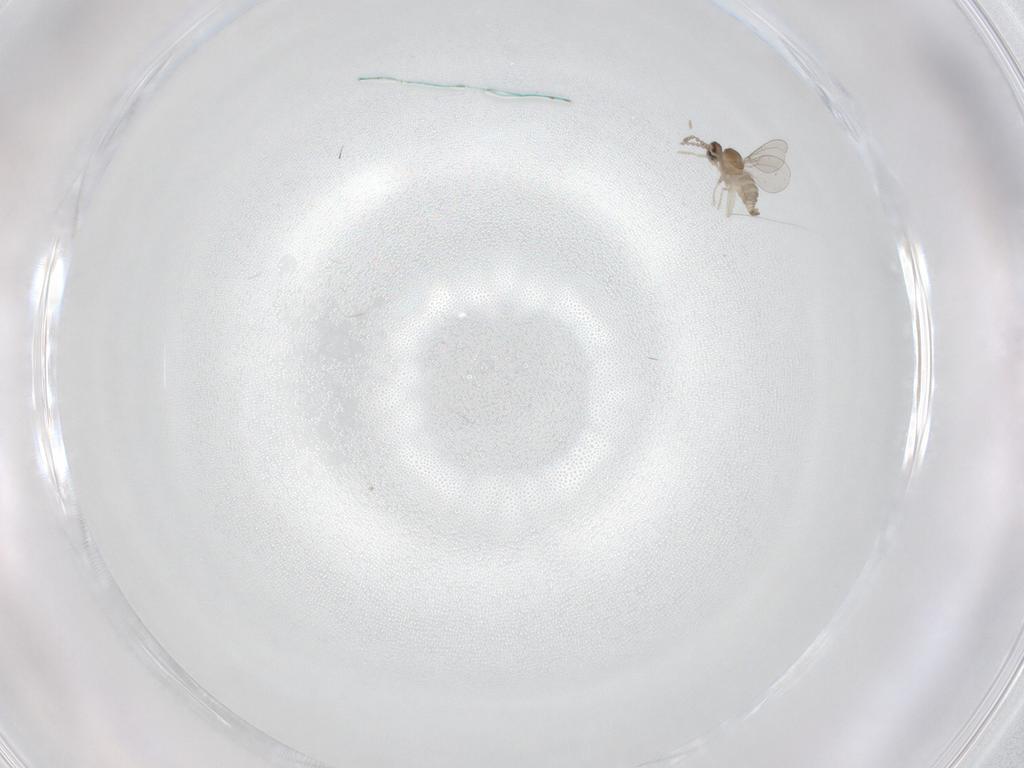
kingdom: Animalia
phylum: Arthropoda
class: Insecta
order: Diptera
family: Cecidomyiidae
